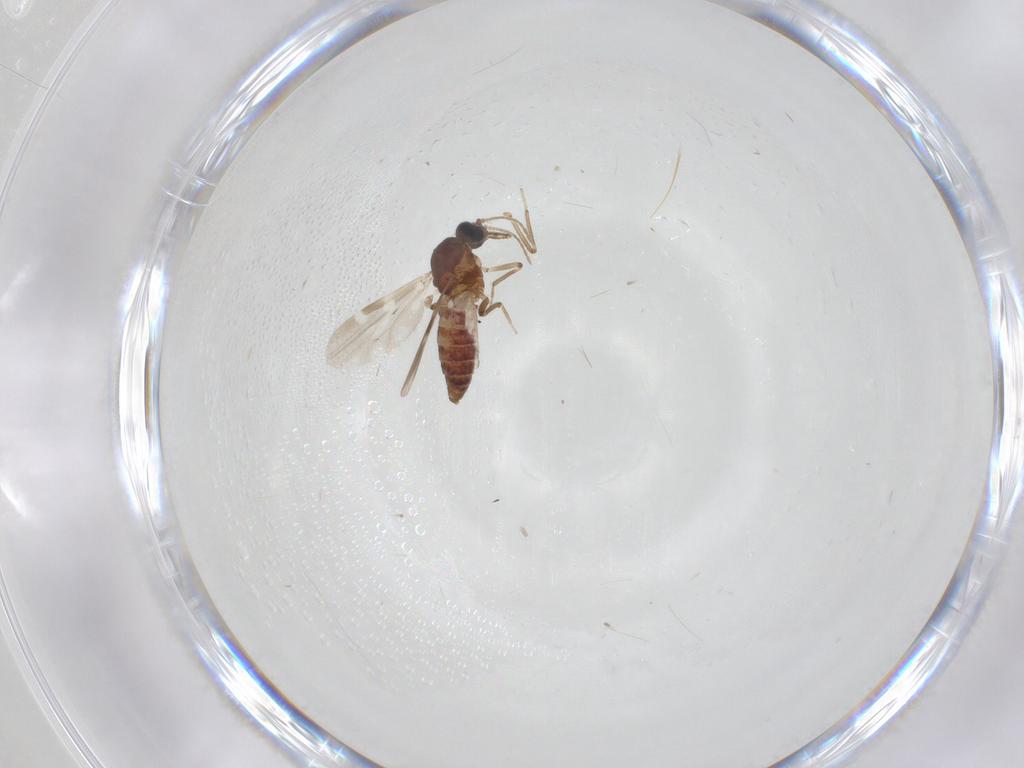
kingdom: Animalia
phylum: Arthropoda
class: Insecta
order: Diptera
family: Ceratopogonidae
